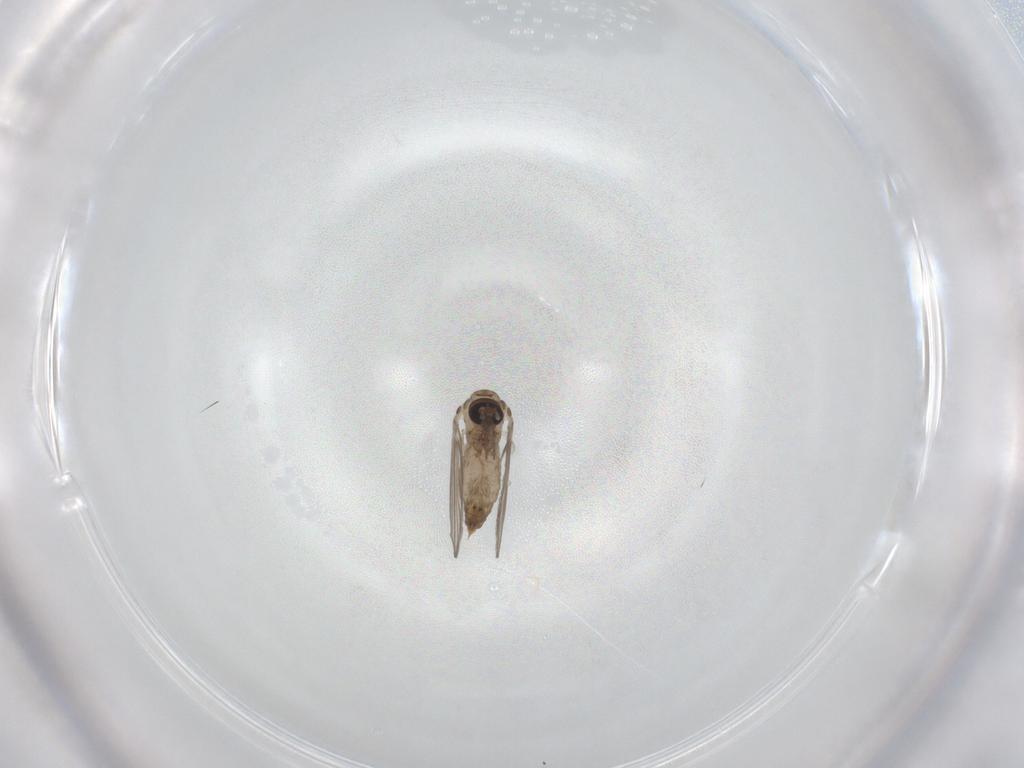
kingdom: Animalia
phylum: Arthropoda
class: Insecta
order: Diptera
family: Psychodidae
